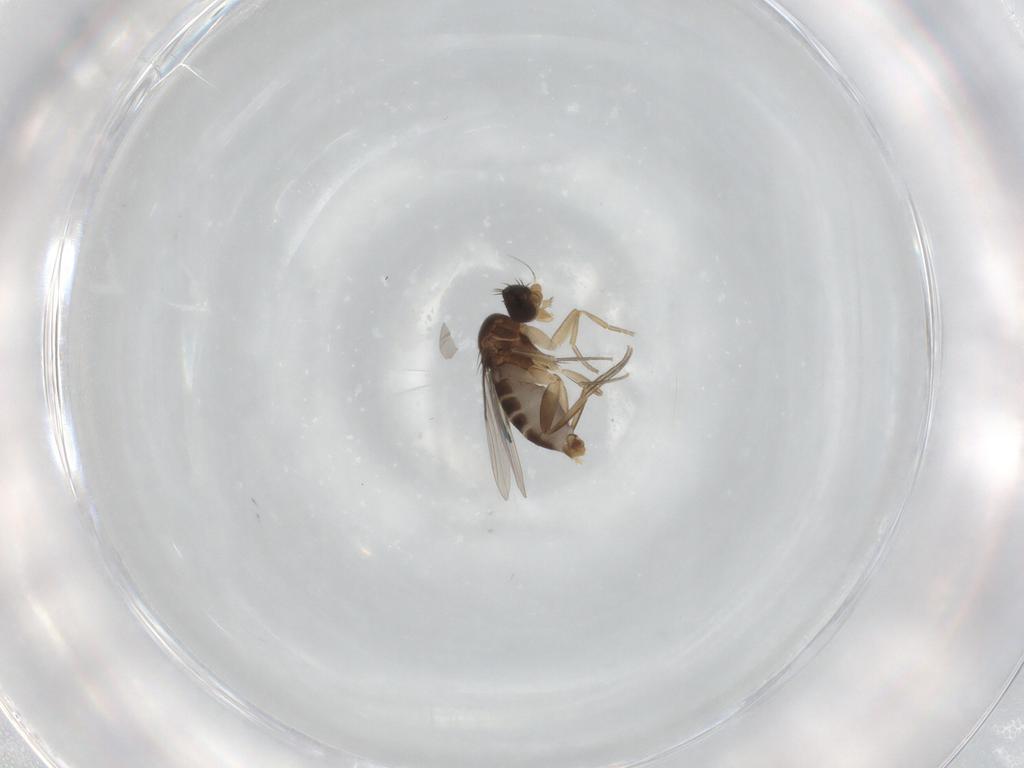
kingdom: Animalia
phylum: Arthropoda
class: Insecta
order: Diptera
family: Phoridae
